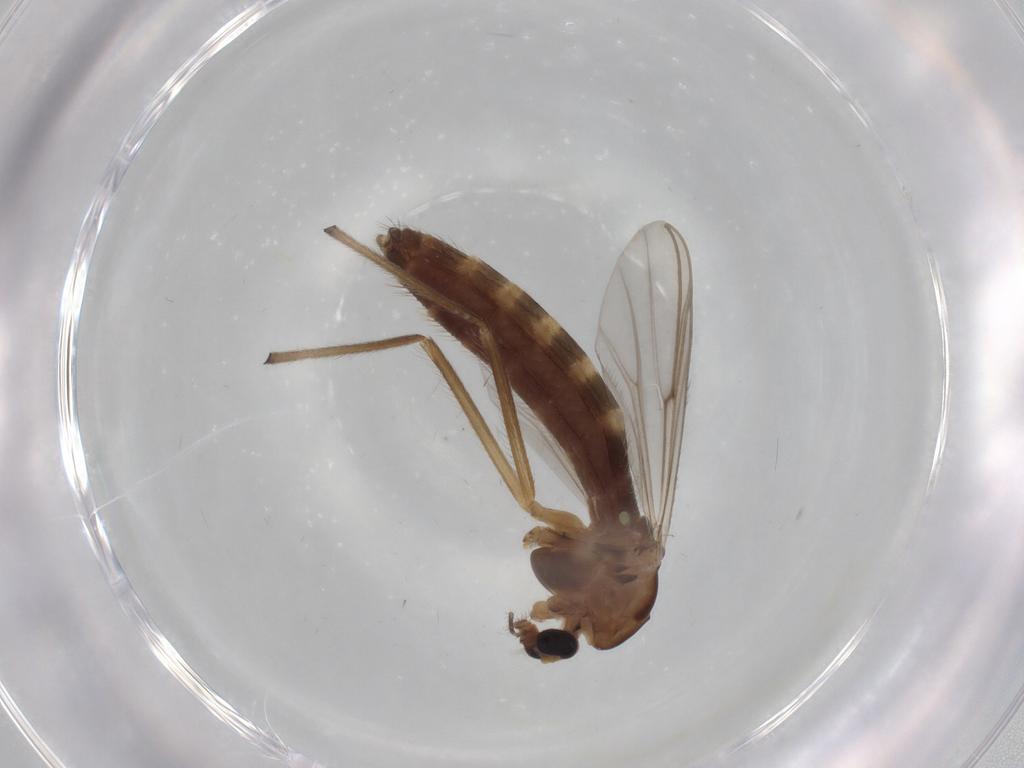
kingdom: Animalia
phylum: Arthropoda
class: Insecta
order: Diptera
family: Chironomidae
